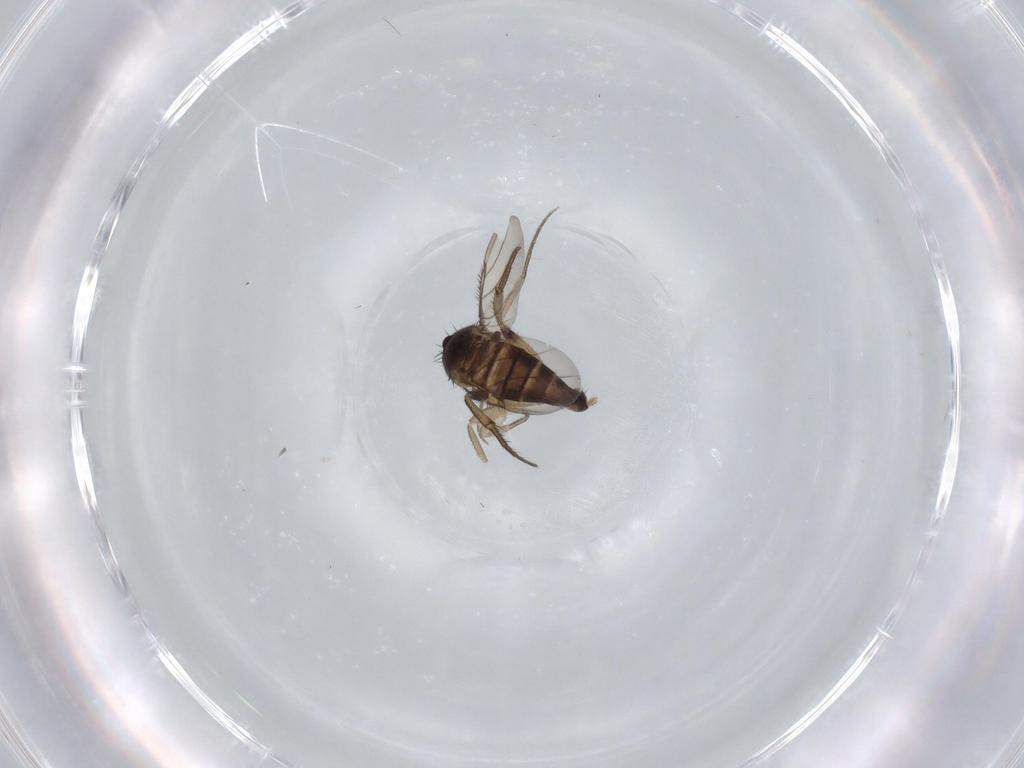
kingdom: Animalia
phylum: Arthropoda
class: Insecta
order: Diptera
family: Phoridae
